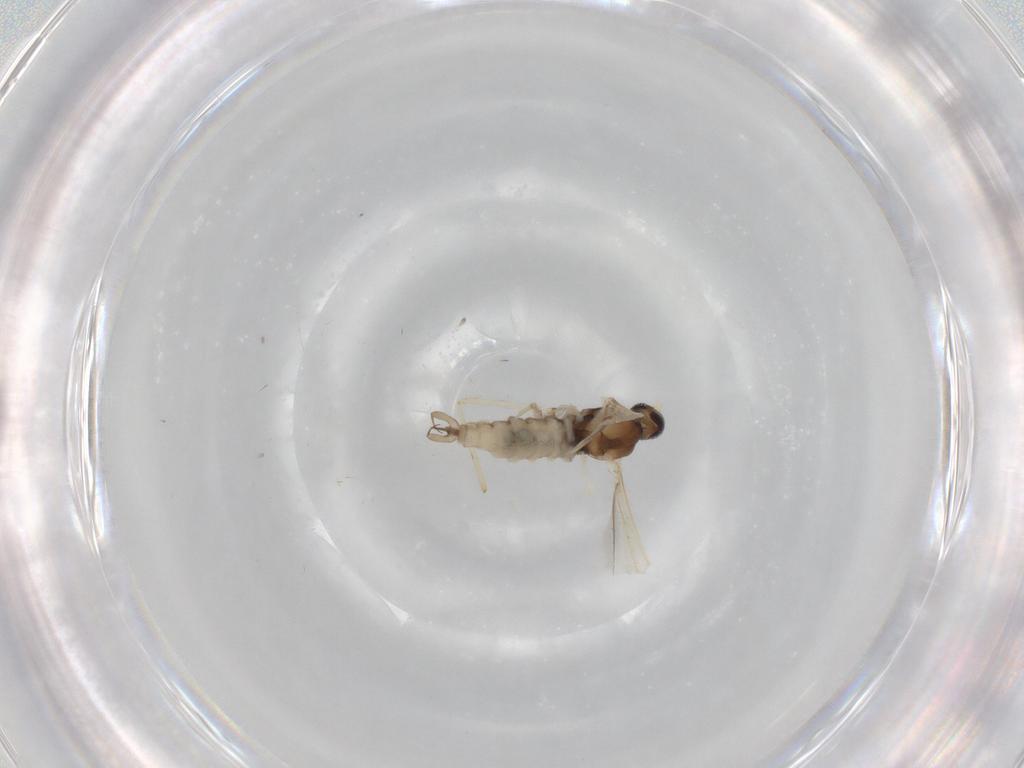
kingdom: Animalia
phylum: Arthropoda
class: Insecta
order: Diptera
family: Cecidomyiidae
